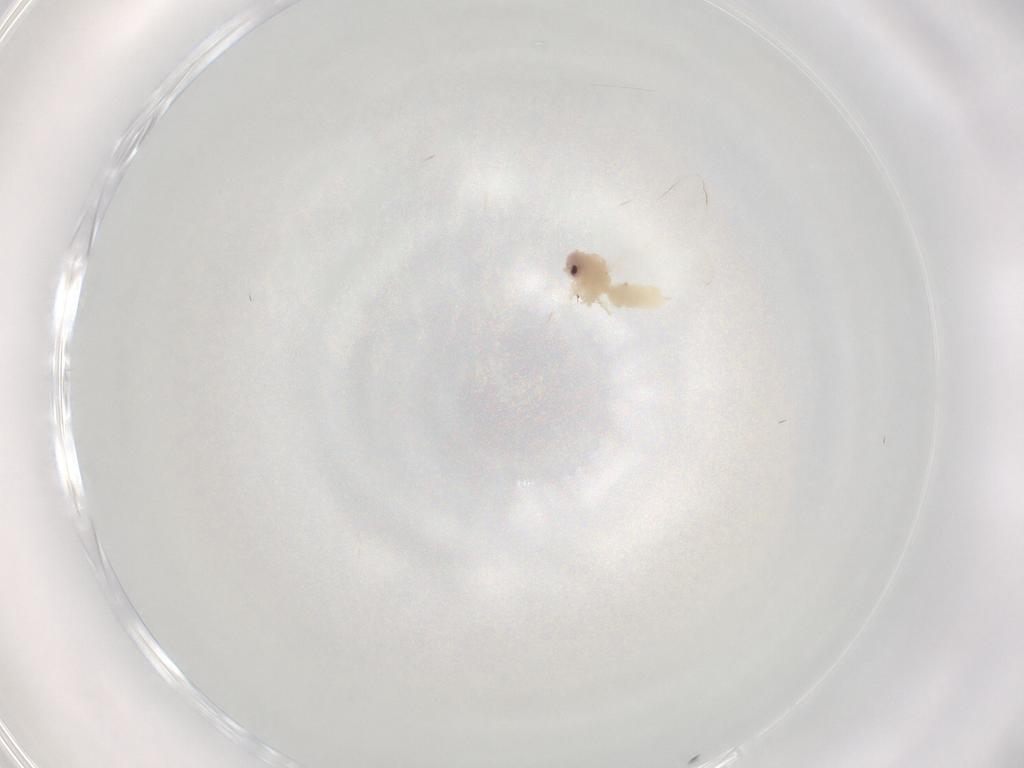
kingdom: Animalia
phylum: Arthropoda
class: Insecta
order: Hemiptera
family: Aleyrodidae
